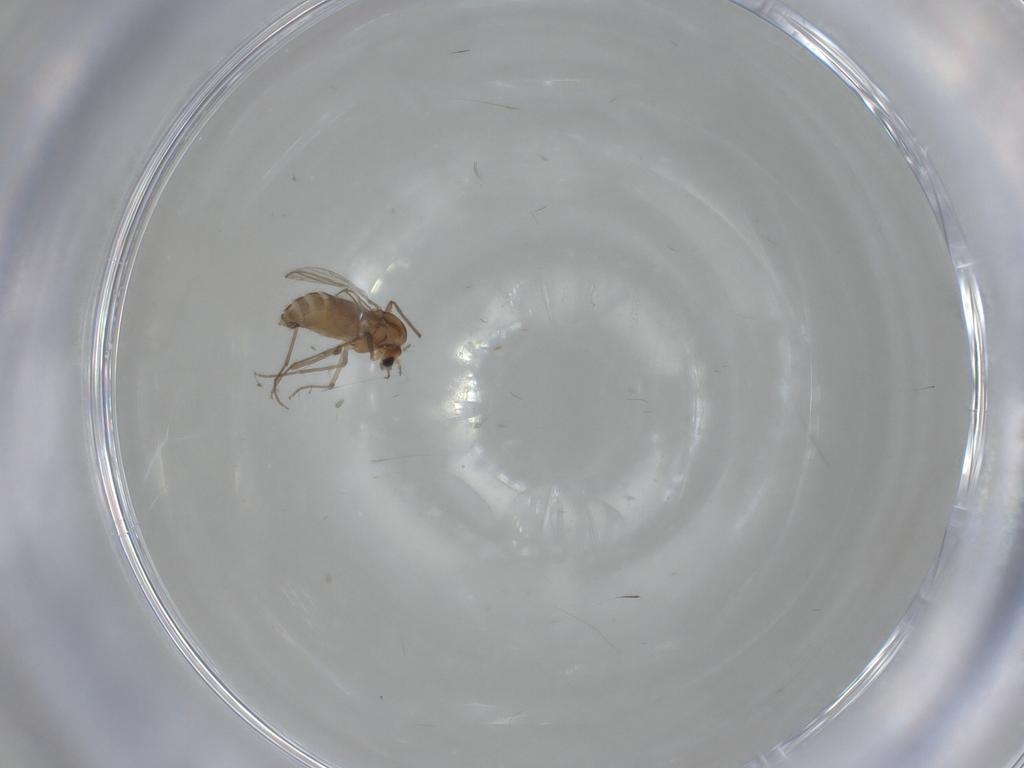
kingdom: Animalia
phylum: Arthropoda
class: Insecta
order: Diptera
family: Chironomidae
